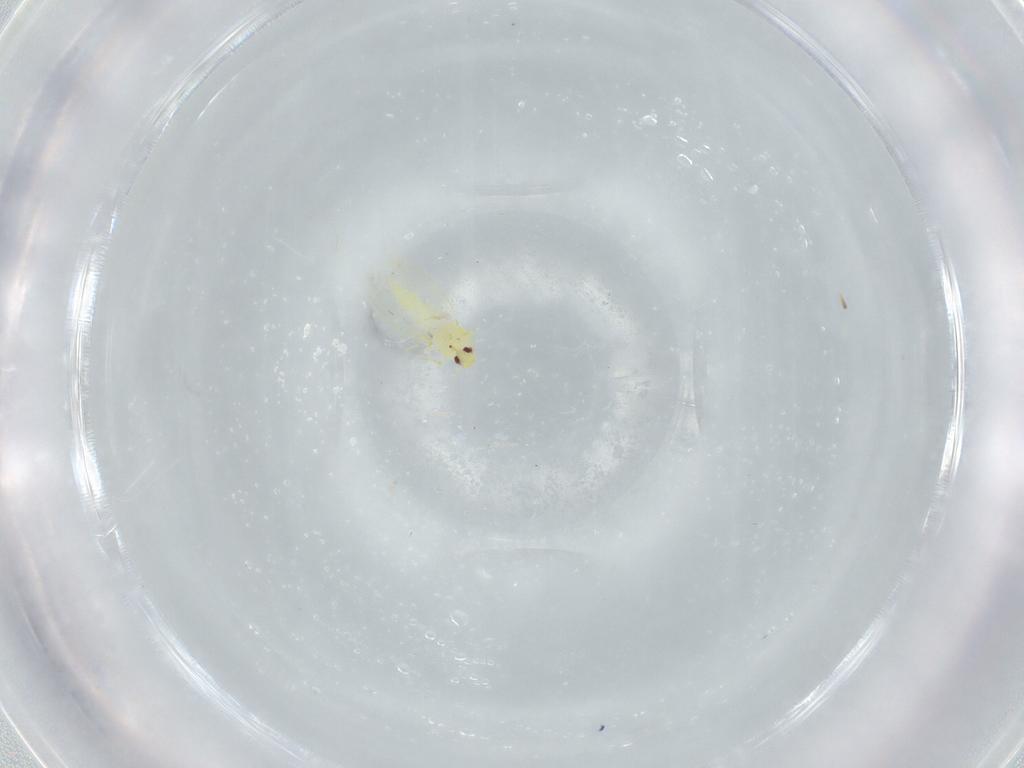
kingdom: Animalia
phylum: Arthropoda
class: Insecta
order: Hemiptera
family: Aleyrodidae
